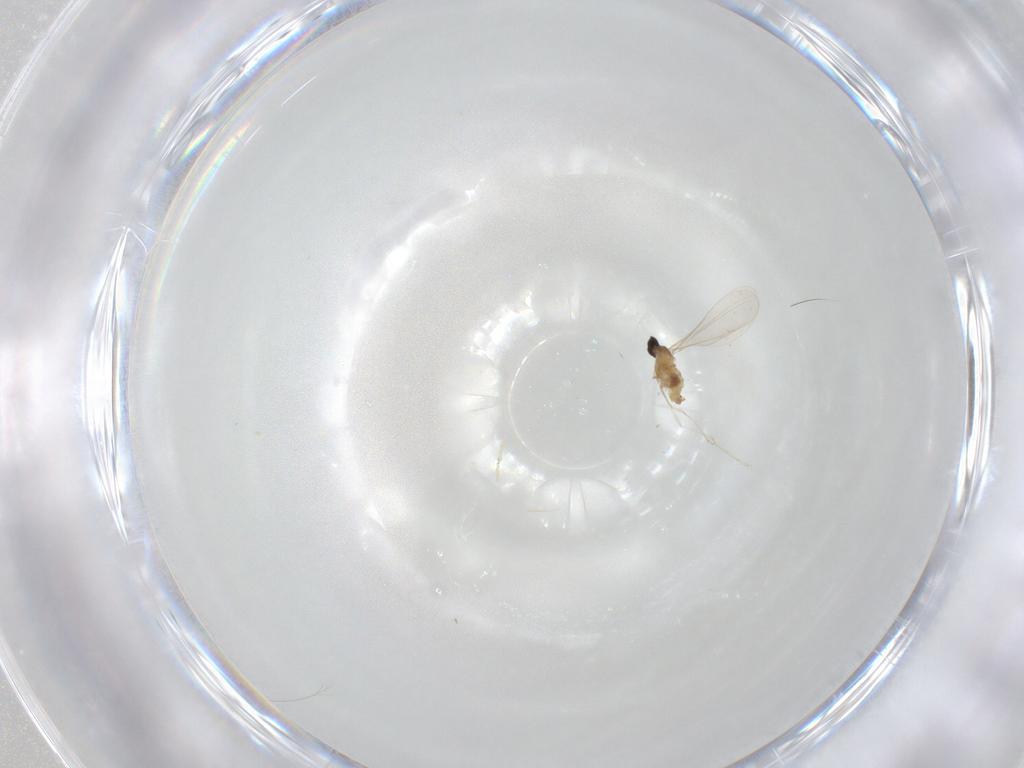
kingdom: Animalia
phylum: Arthropoda
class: Insecta
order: Diptera
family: Cecidomyiidae
